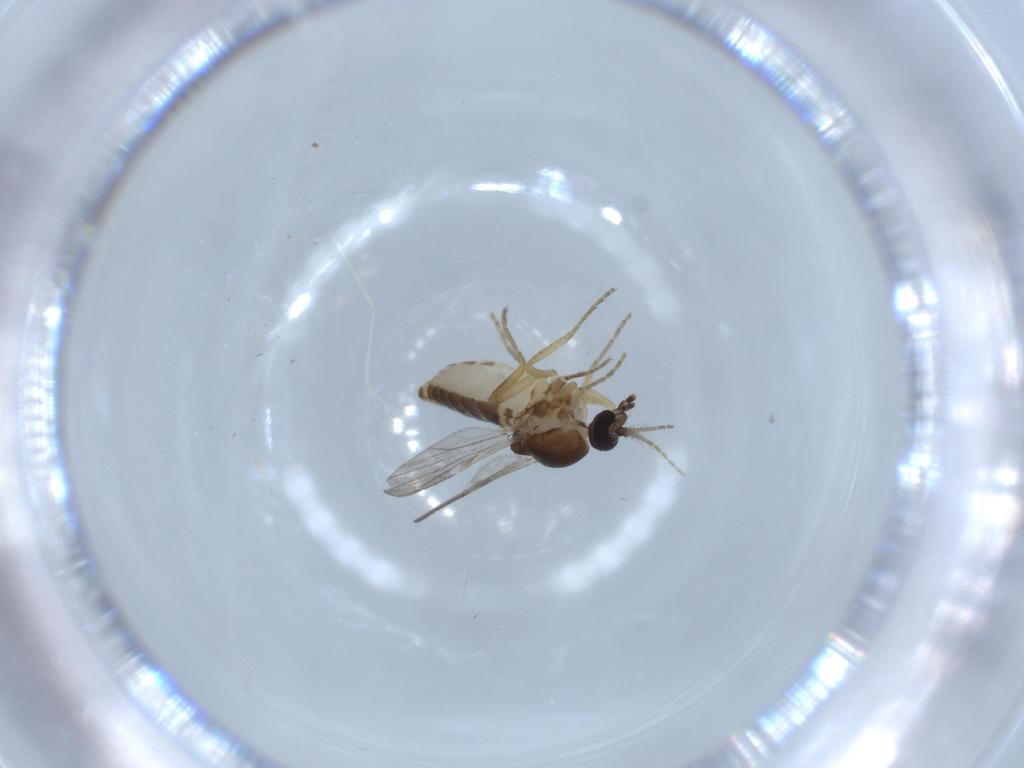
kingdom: Animalia
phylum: Arthropoda
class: Insecta
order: Diptera
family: Cecidomyiidae
